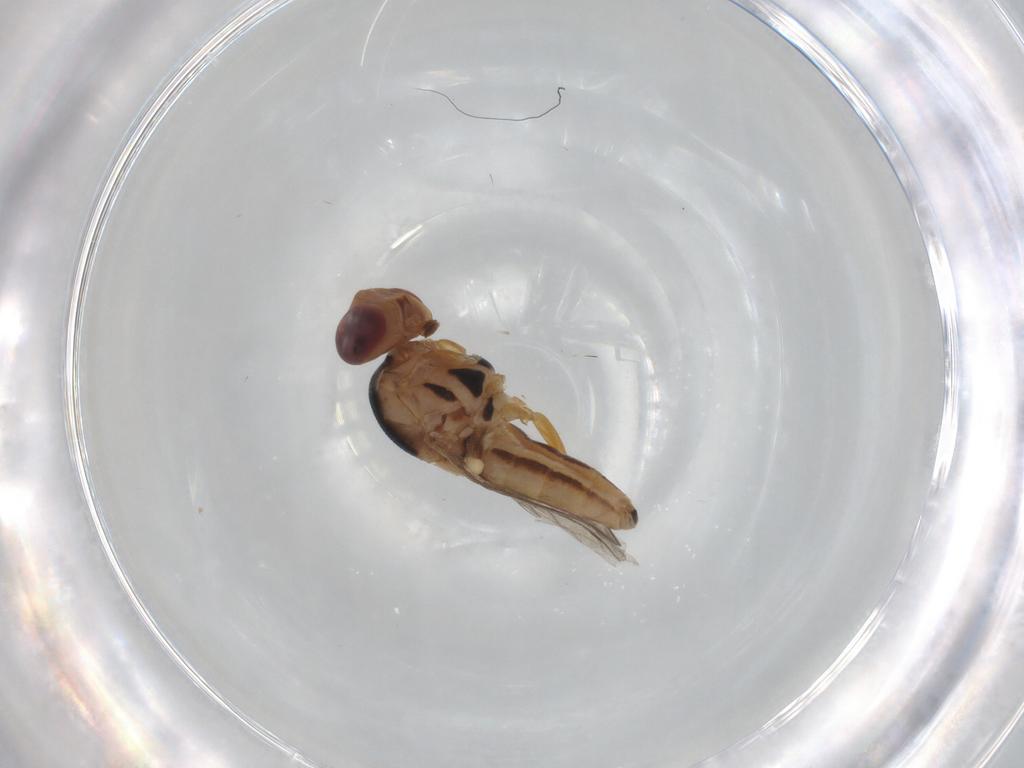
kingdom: Animalia
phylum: Arthropoda
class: Insecta
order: Diptera
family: Chloropidae
